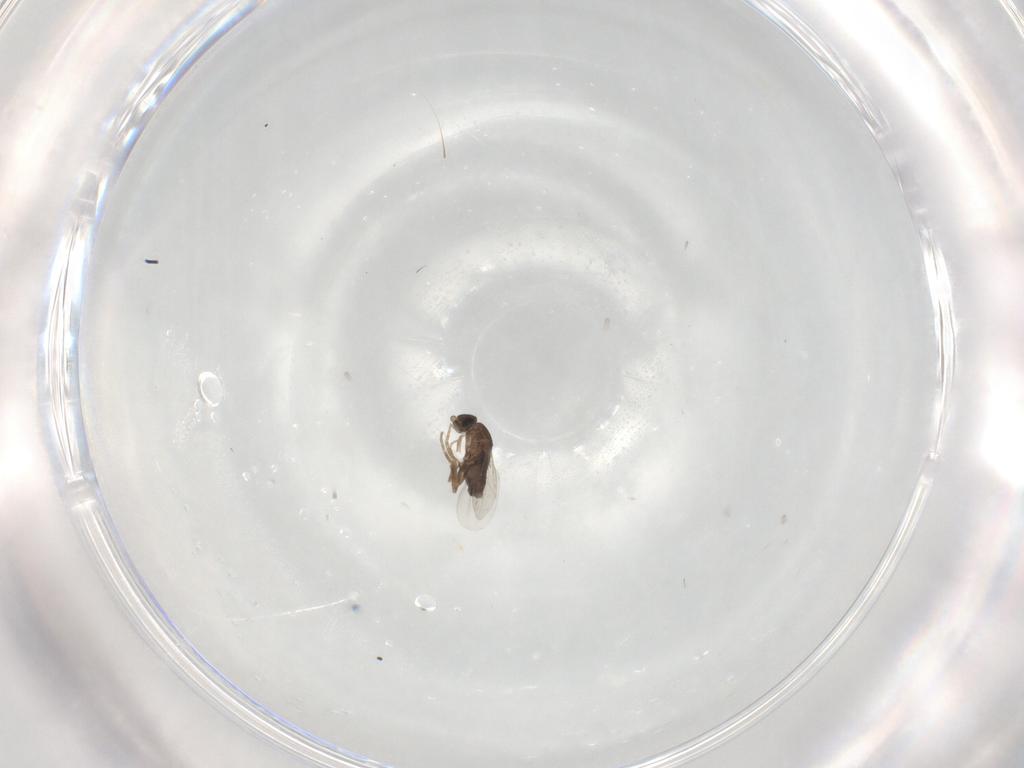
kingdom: Animalia
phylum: Arthropoda
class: Insecta
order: Diptera
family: Phoridae
